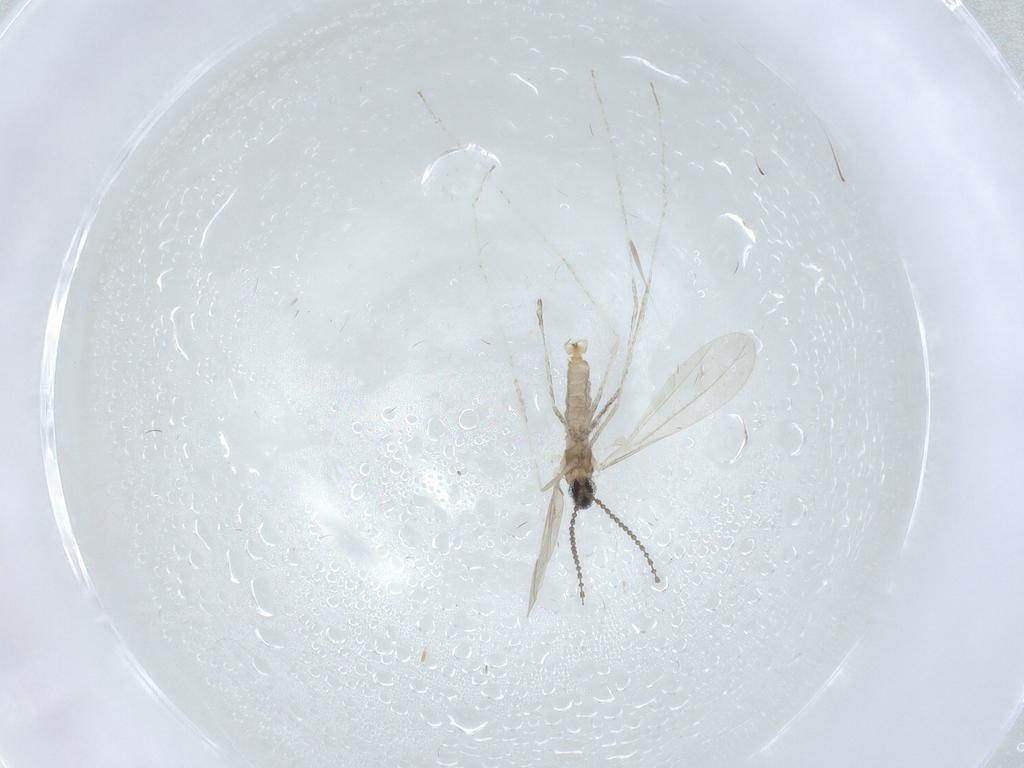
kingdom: Animalia
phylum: Arthropoda
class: Insecta
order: Diptera
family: Cecidomyiidae
